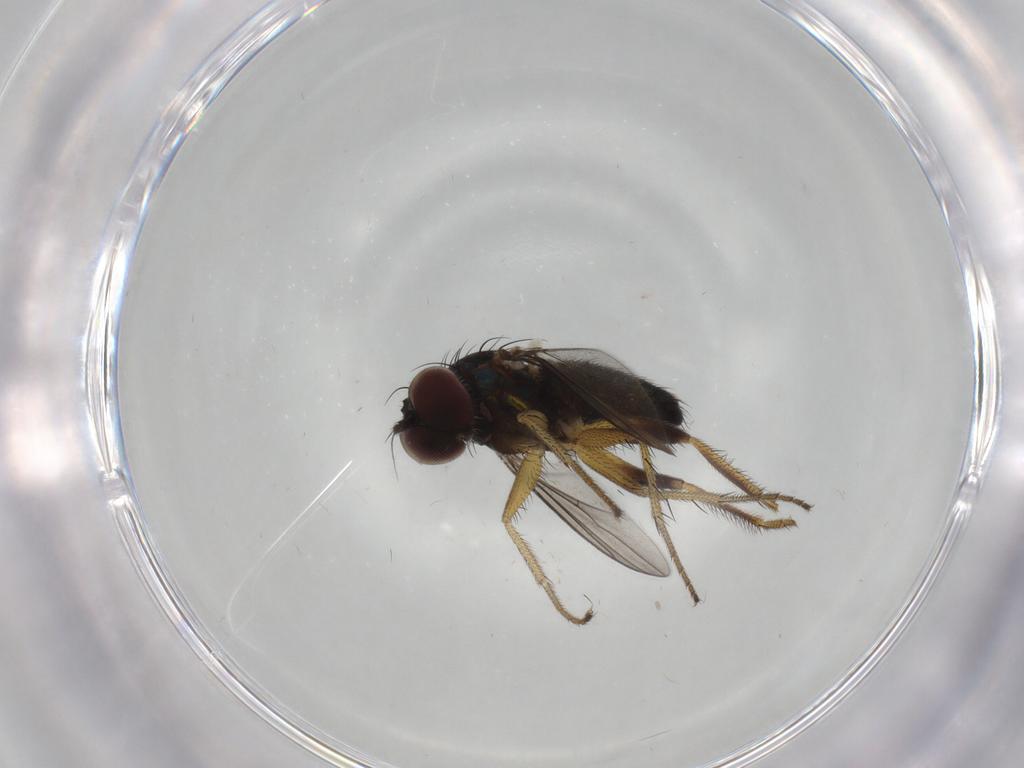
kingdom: Animalia
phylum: Arthropoda
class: Insecta
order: Diptera
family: Dolichopodidae
